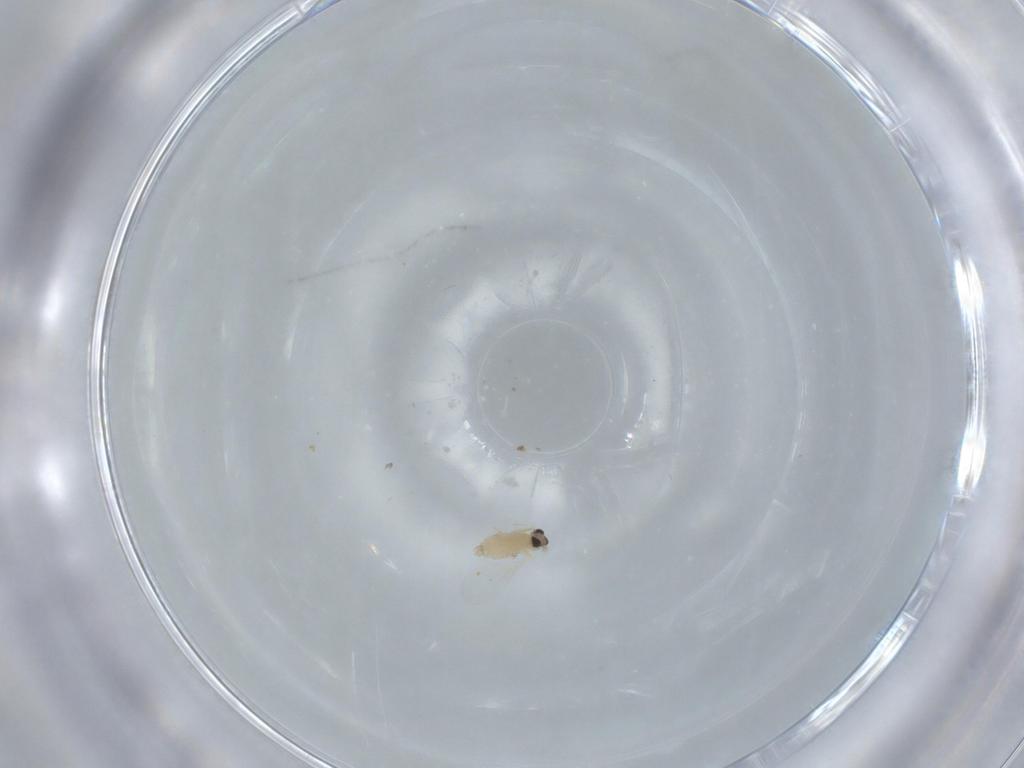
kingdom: Animalia
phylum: Arthropoda
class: Insecta
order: Diptera
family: Cecidomyiidae
